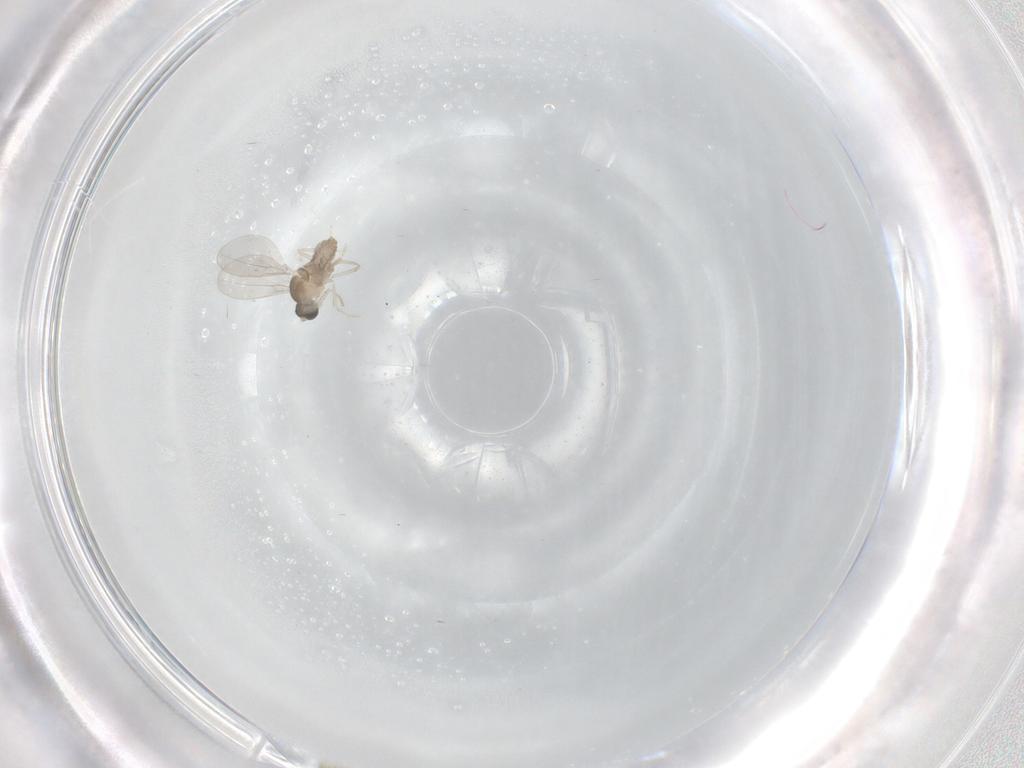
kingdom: Animalia
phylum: Arthropoda
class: Insecta
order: Diptera
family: Cecidomyiidae
